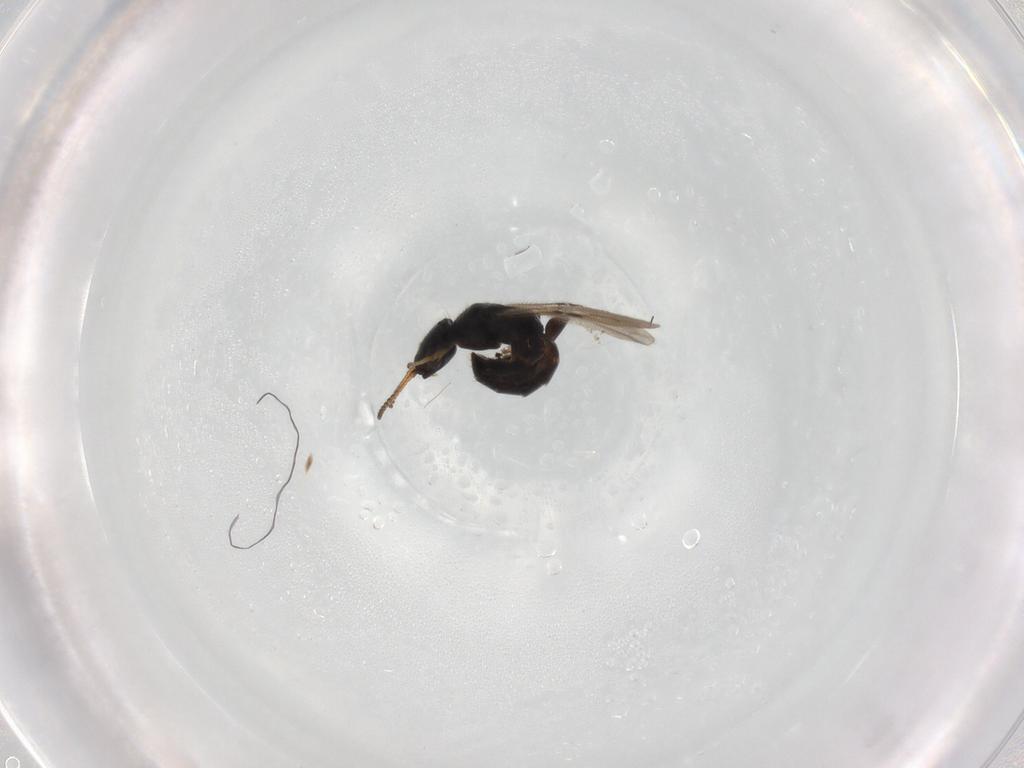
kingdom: Animalia
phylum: Arthropoda
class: Insecta
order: Hymenoptera
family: Bethylidae
